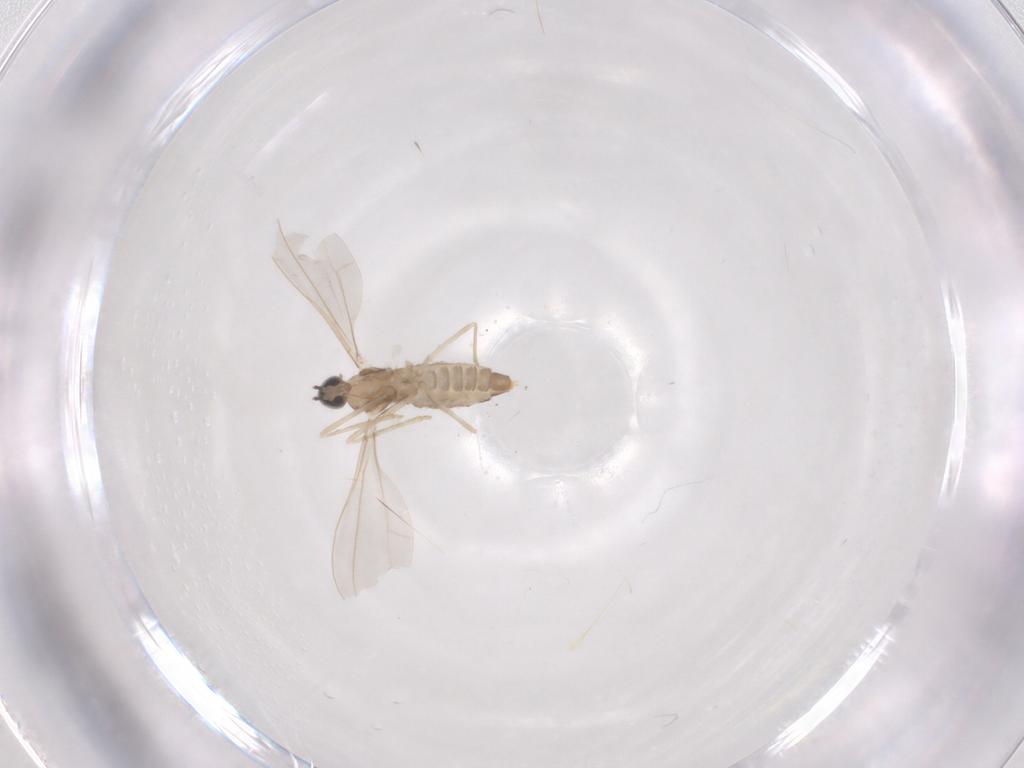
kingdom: Animalia
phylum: Arthropoda
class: Insecta
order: Diptera
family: Cecidomyiidae
